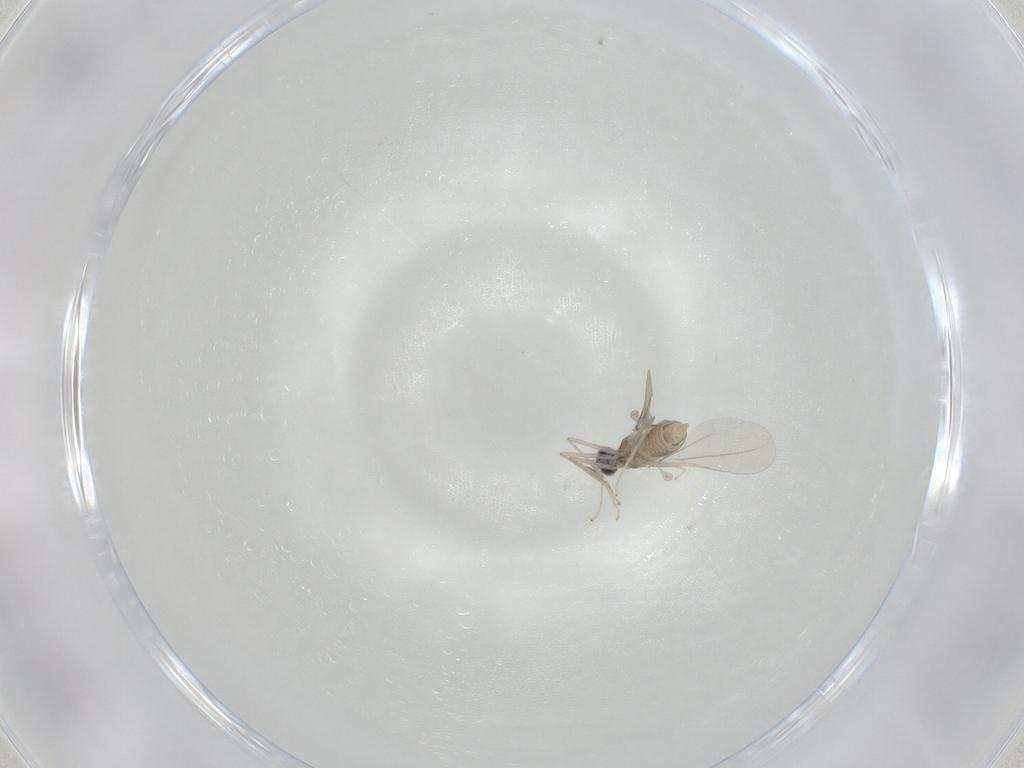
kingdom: Animalia
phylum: Arthropoda
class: Insecta
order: Diptera
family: Cecidomyiidae
